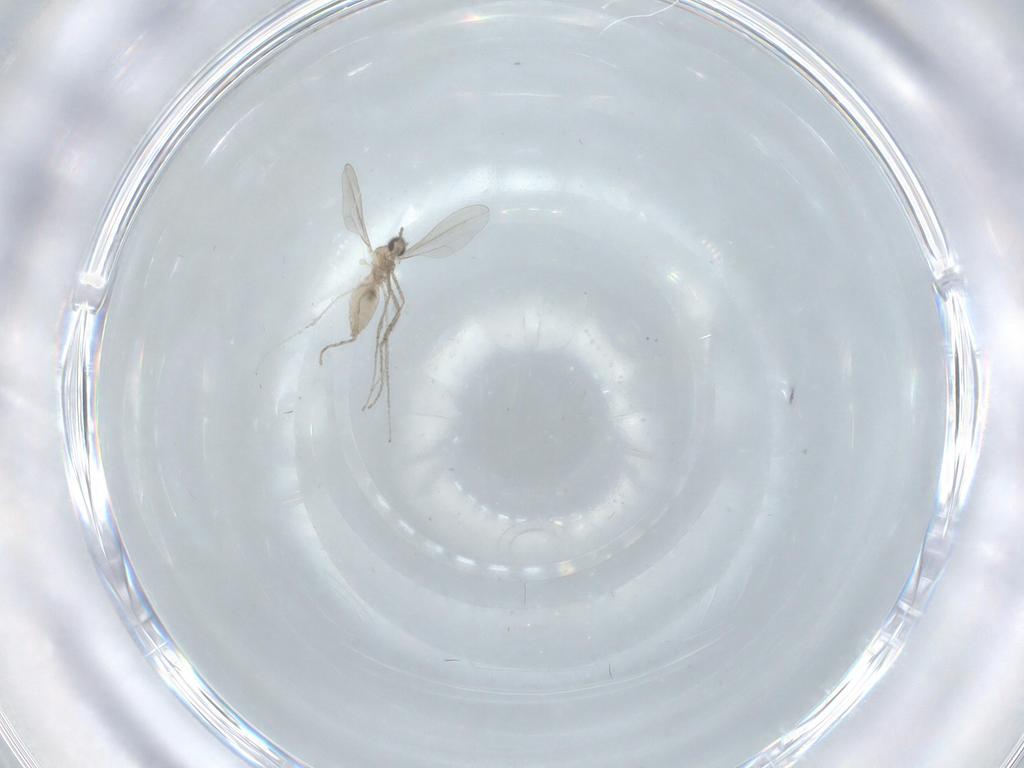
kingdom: Animalia
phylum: Arthropoda
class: Insecta
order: Diptera
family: Cecidomyiidae
